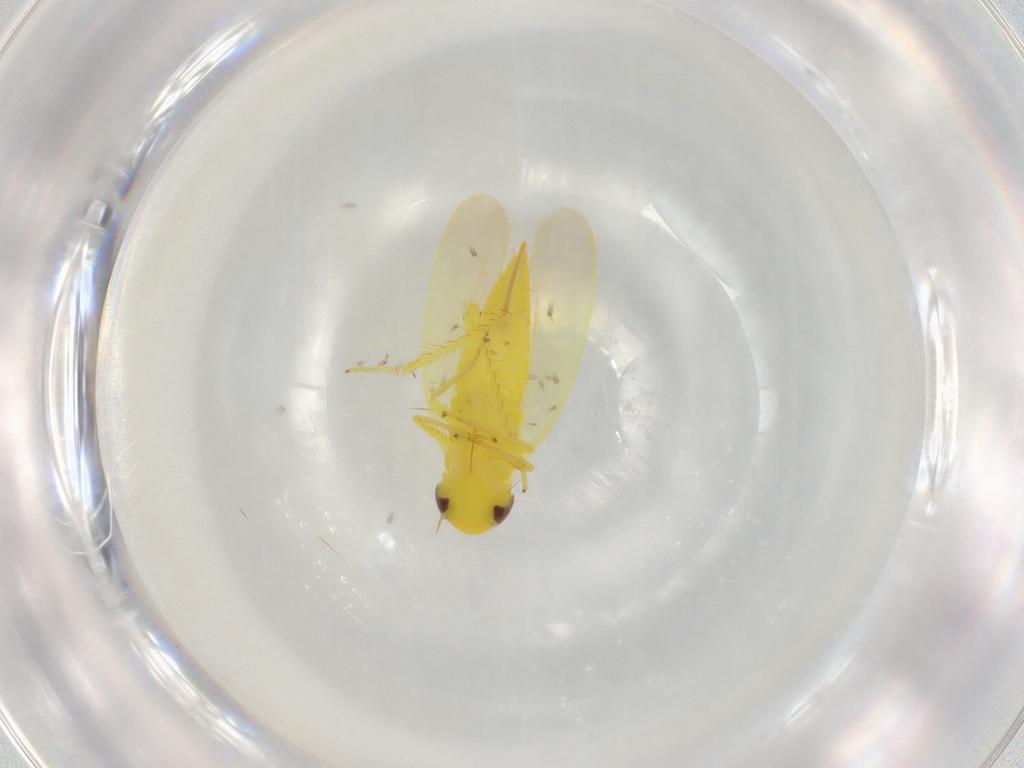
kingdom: Animalia
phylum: Arthropoda
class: Insecta
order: Hemiptera
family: Cicadellidae
